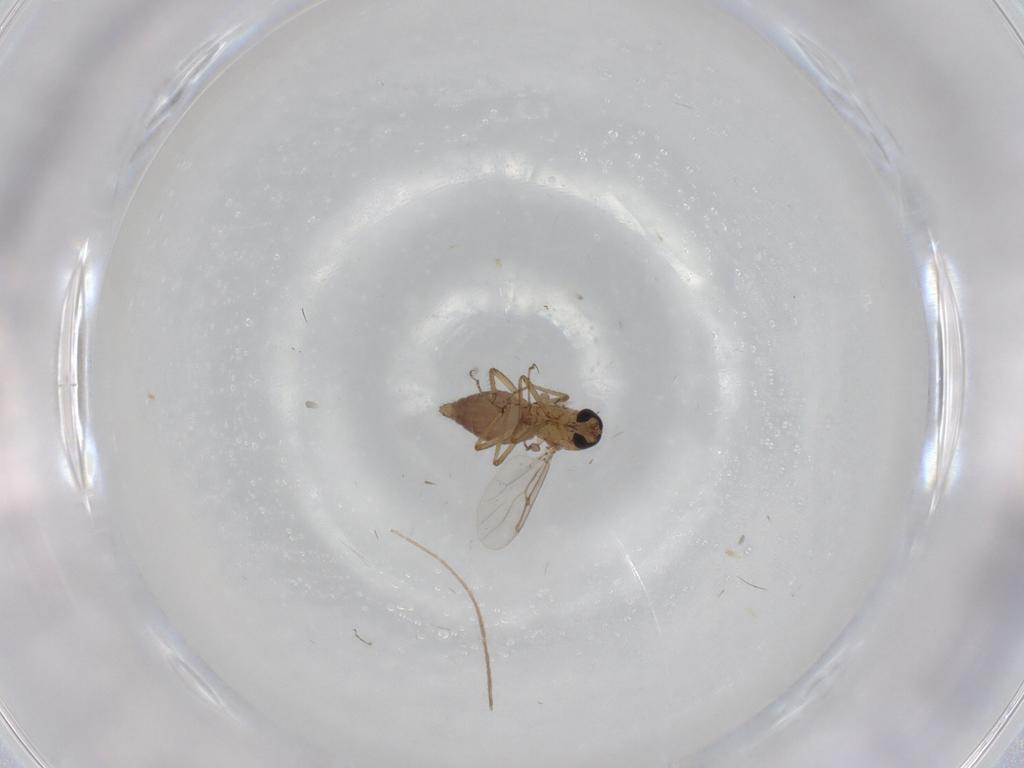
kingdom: Animalia
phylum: Arthropoda
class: Insecta
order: Diptera
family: Ceratopogonidae
